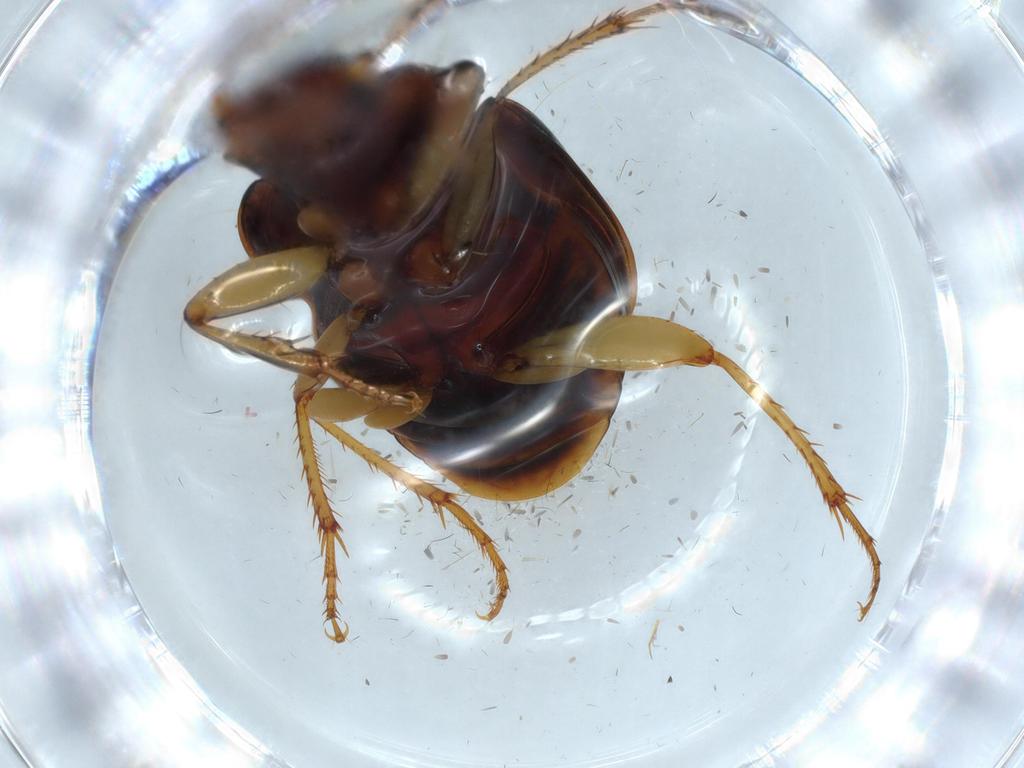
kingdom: Animalia
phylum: Arthropoda
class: Insecta
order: Coleoptera
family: Carabidae
